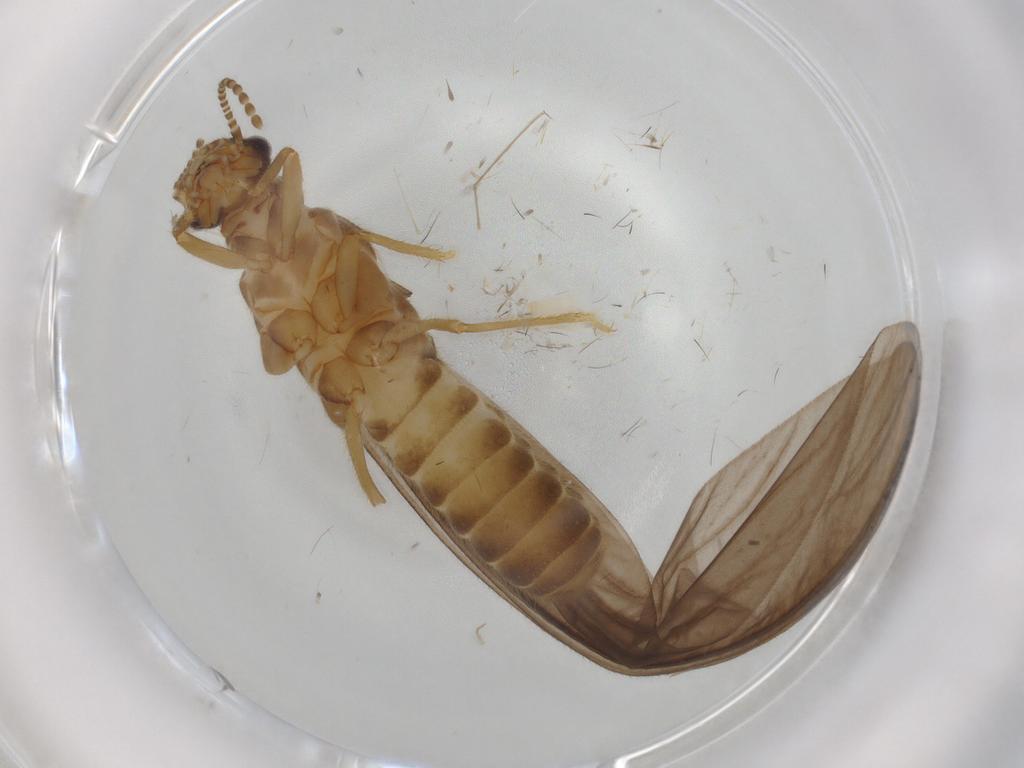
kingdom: Animalia
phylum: Arthropoda
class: Insecta
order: Blattodea
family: Termitidae
